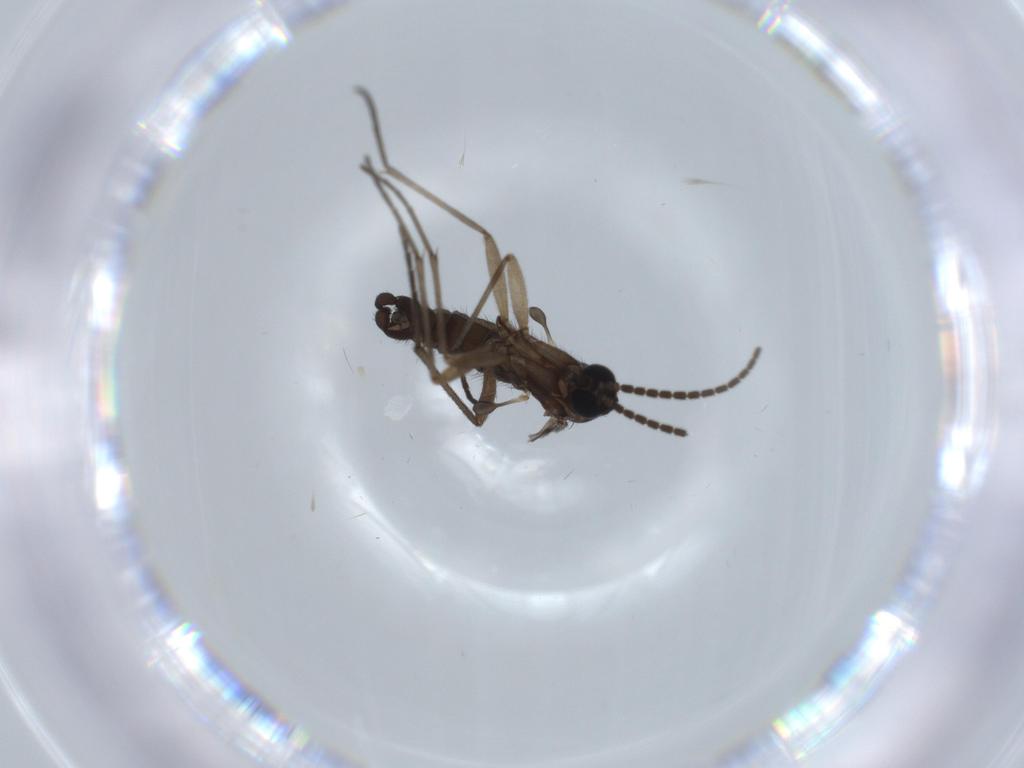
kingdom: Animalia
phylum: Arthropoda
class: Insecta
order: Diptera
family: Sciaridae
